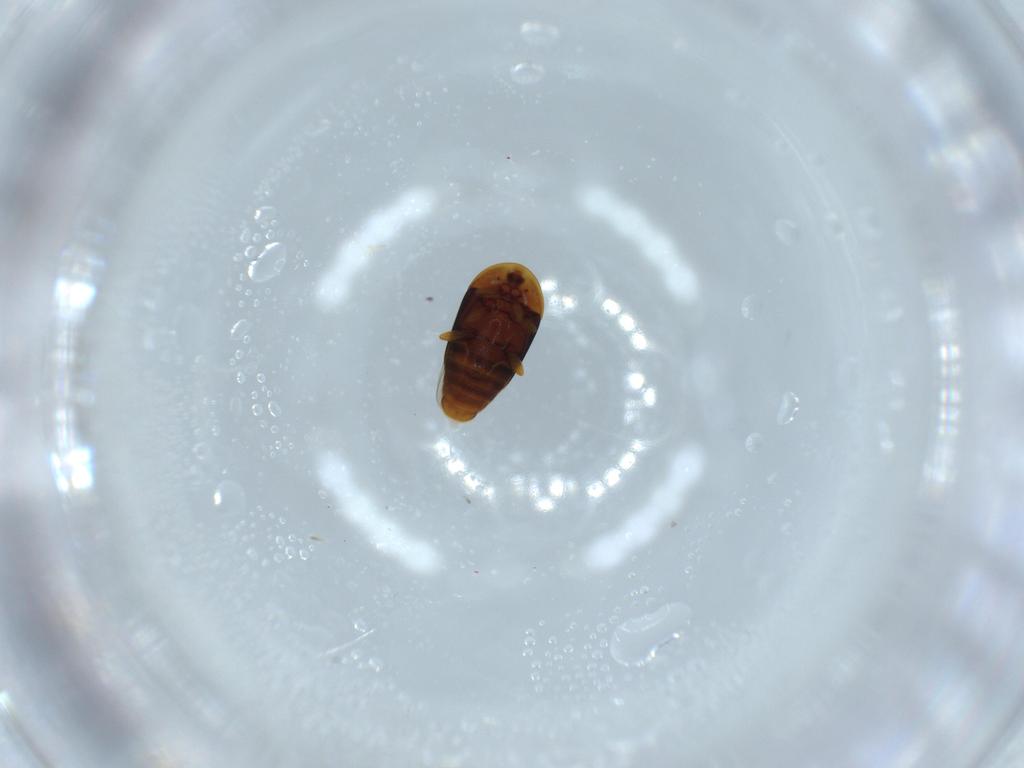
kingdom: Animalia
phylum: Arthropoda
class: Insecta
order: Coleoptera
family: Corylophidae
